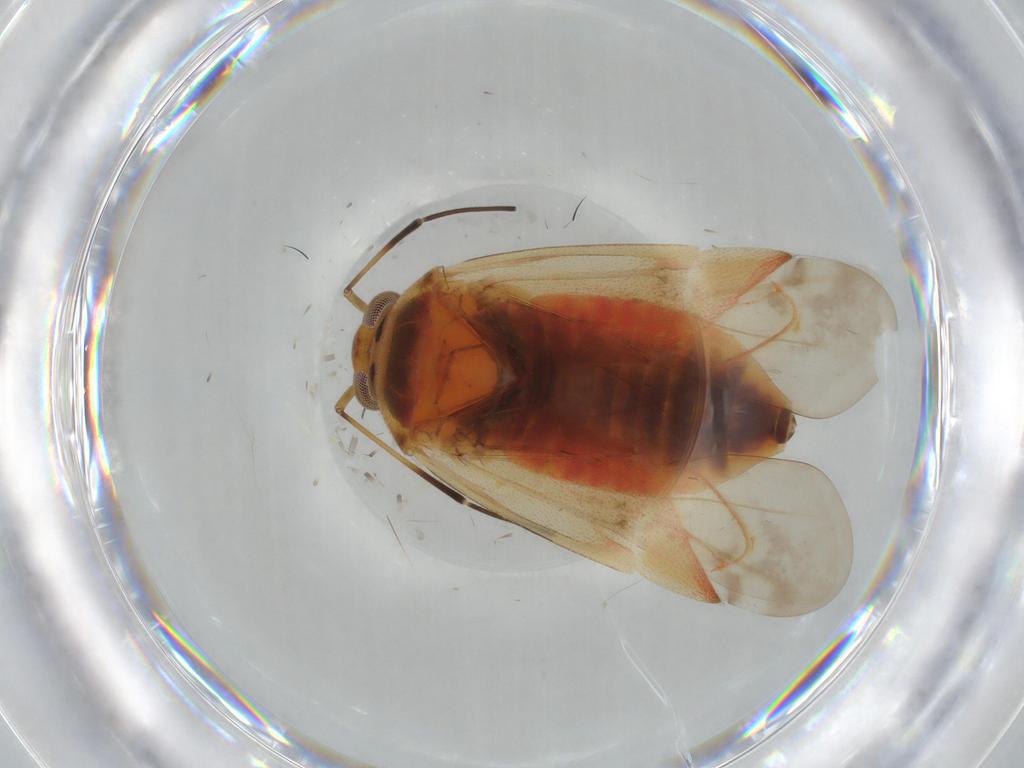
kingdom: Animalia
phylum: Arthropoda
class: Insecta
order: Hemiptera
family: Miridae
